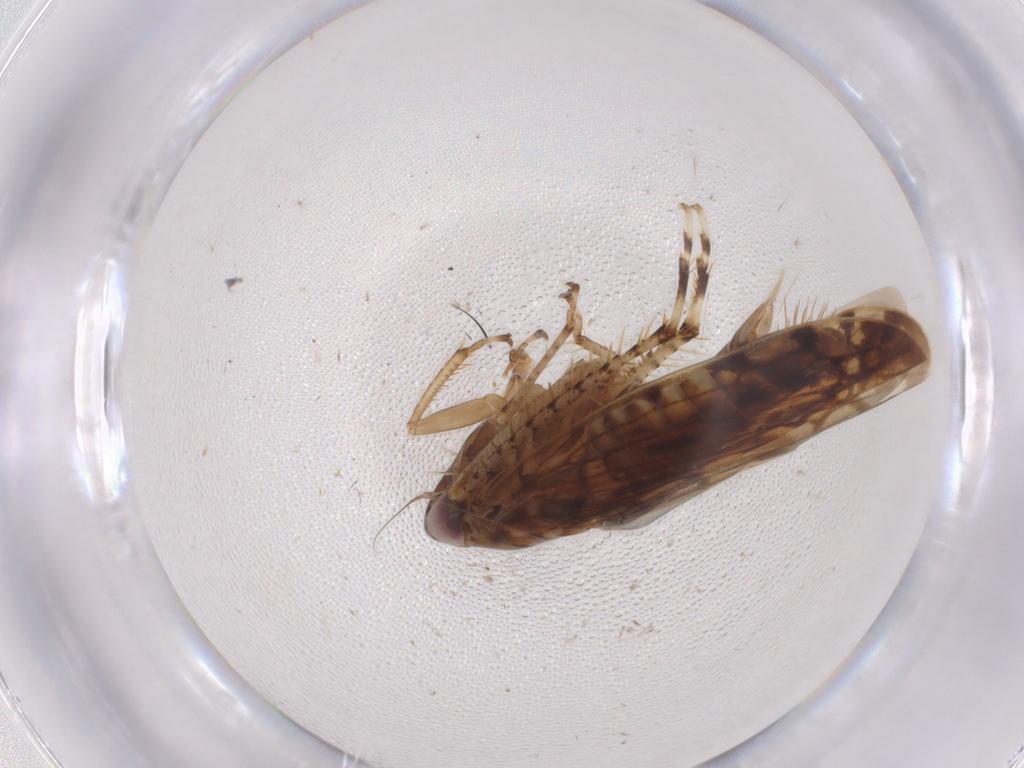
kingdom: Animalia
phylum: Arthropoda
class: Insecta
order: Hemiptera
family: Cicadellidae
